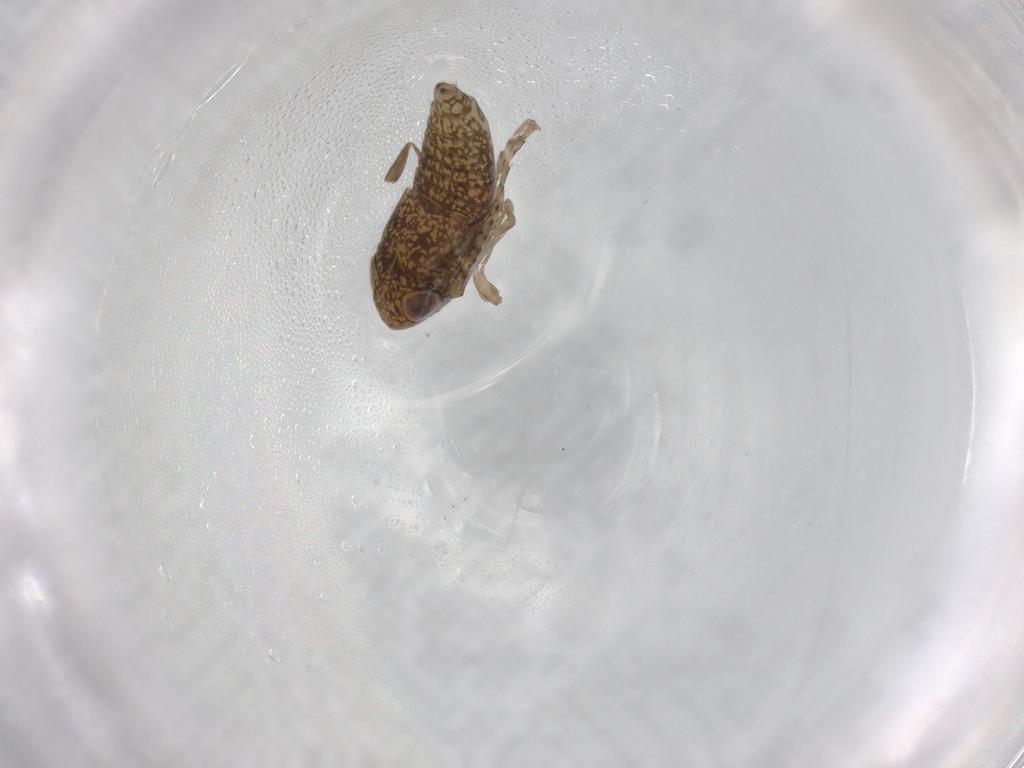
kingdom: Animalia
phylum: Arthropoda
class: Insecta
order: Hemiptera
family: Cicadellidae
